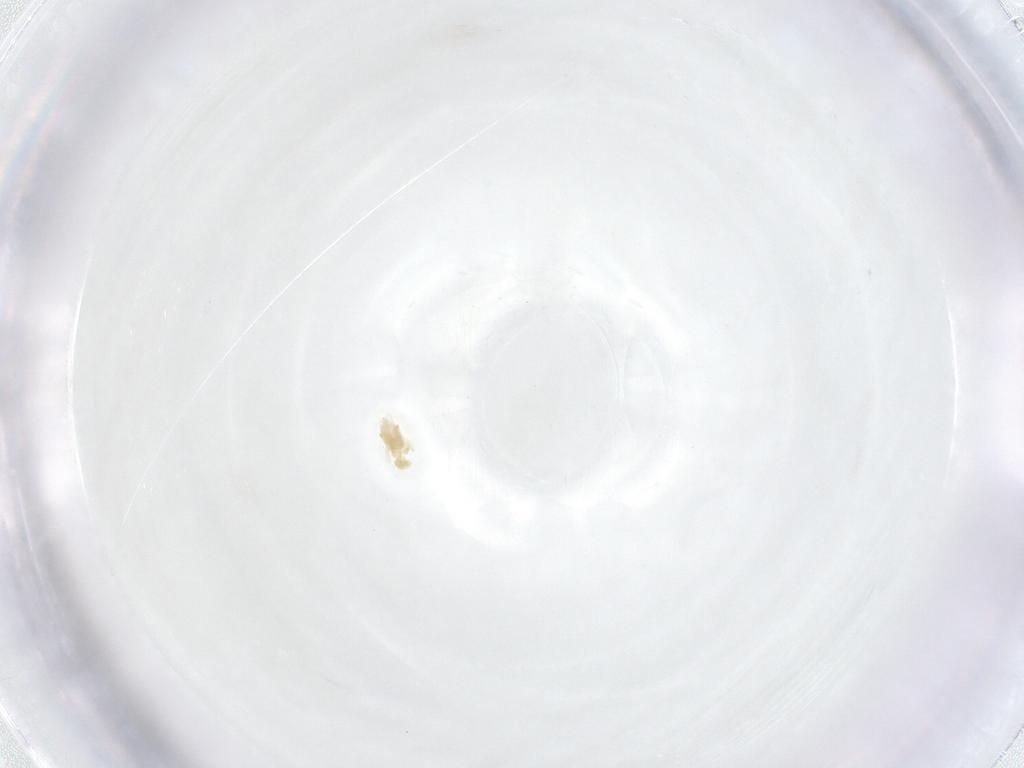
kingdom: Animalia
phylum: Arthropoda
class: Arachnida
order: Trombidiformes
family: Eupodidae
